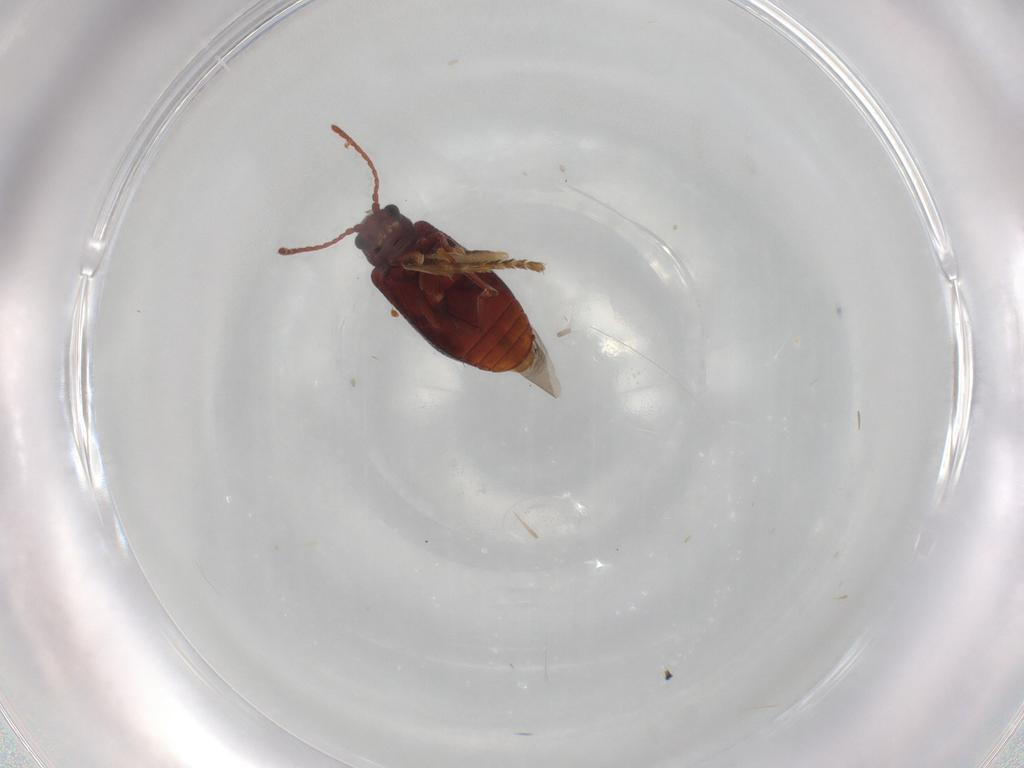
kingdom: Animalia
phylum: Arthropoda
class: Insecta
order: Coleoptera
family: Ptinidae
